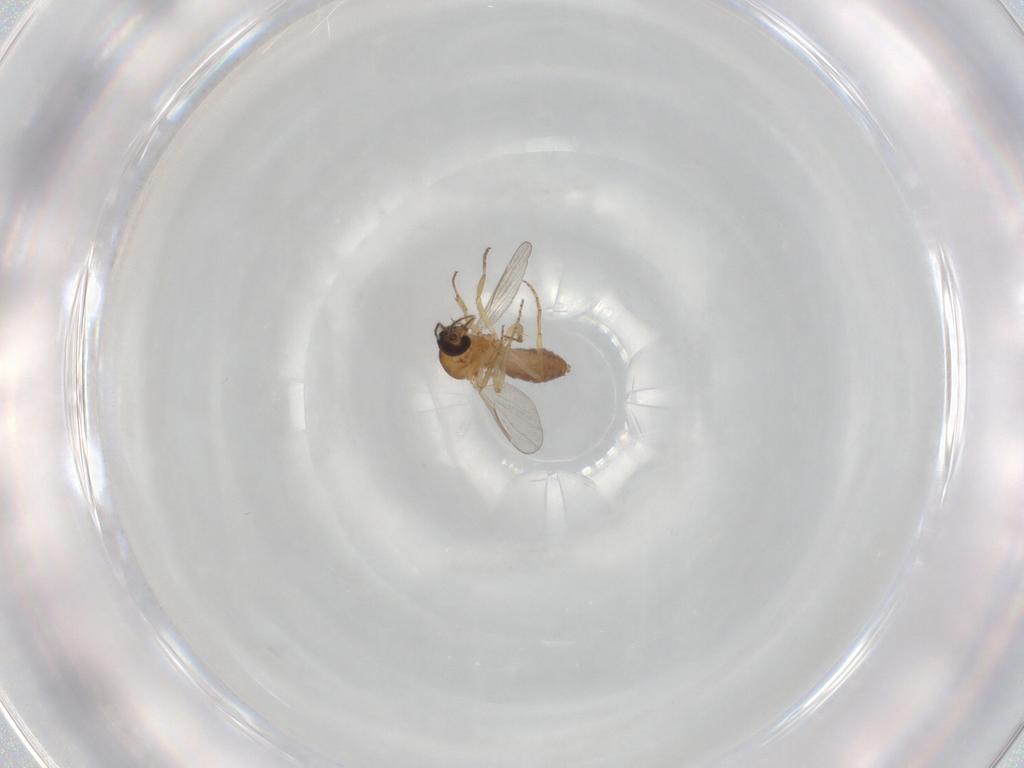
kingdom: Animalia
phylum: Arthropoda
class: Insecta
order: Diptera
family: Ceratopogonidae
